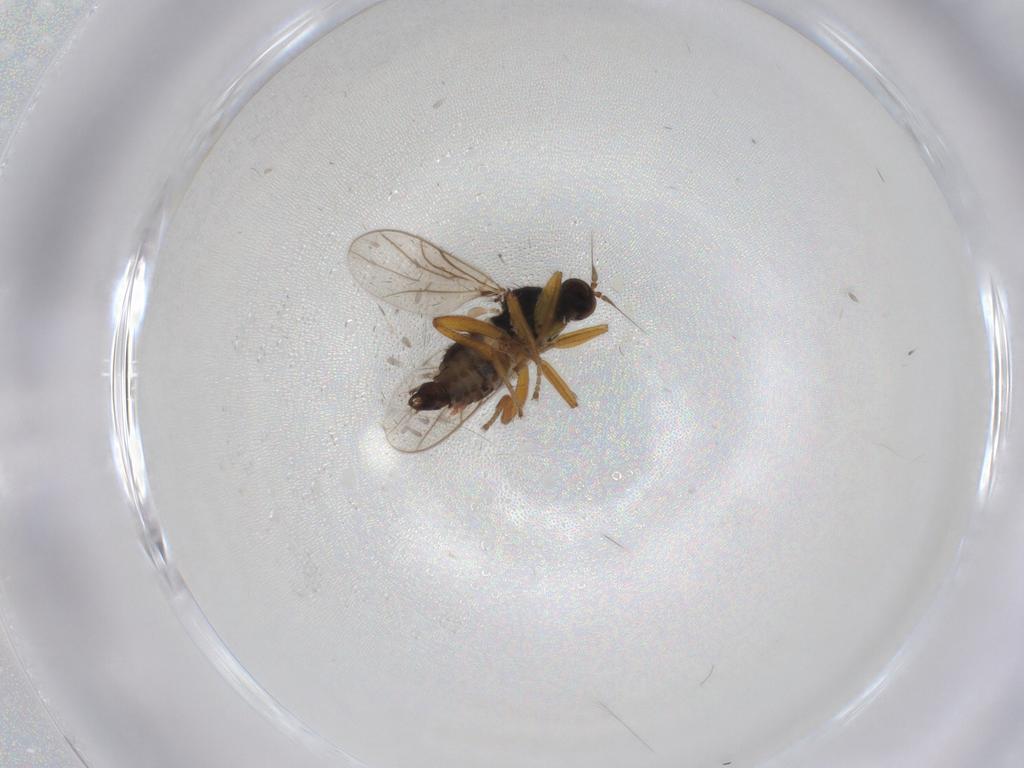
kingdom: Animalia
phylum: Arthropoda
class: Insecta
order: Diptera
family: Hybotidae
